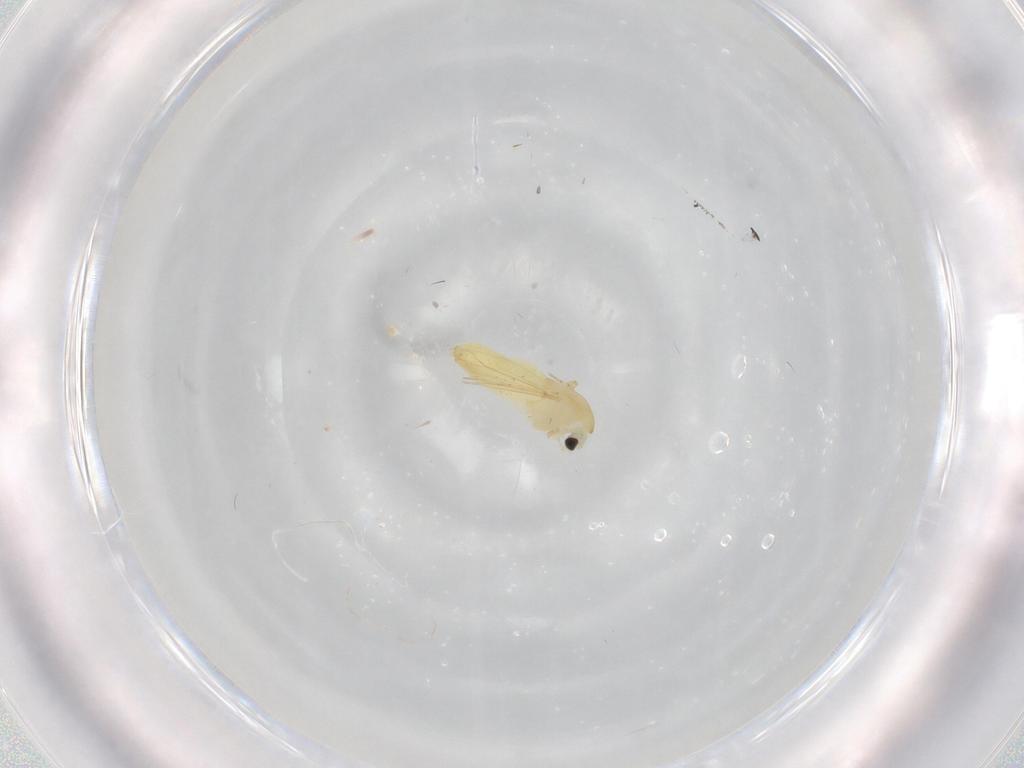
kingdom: Animalia
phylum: Arthropoda
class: Insecta
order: Diptera
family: Chironomidae
